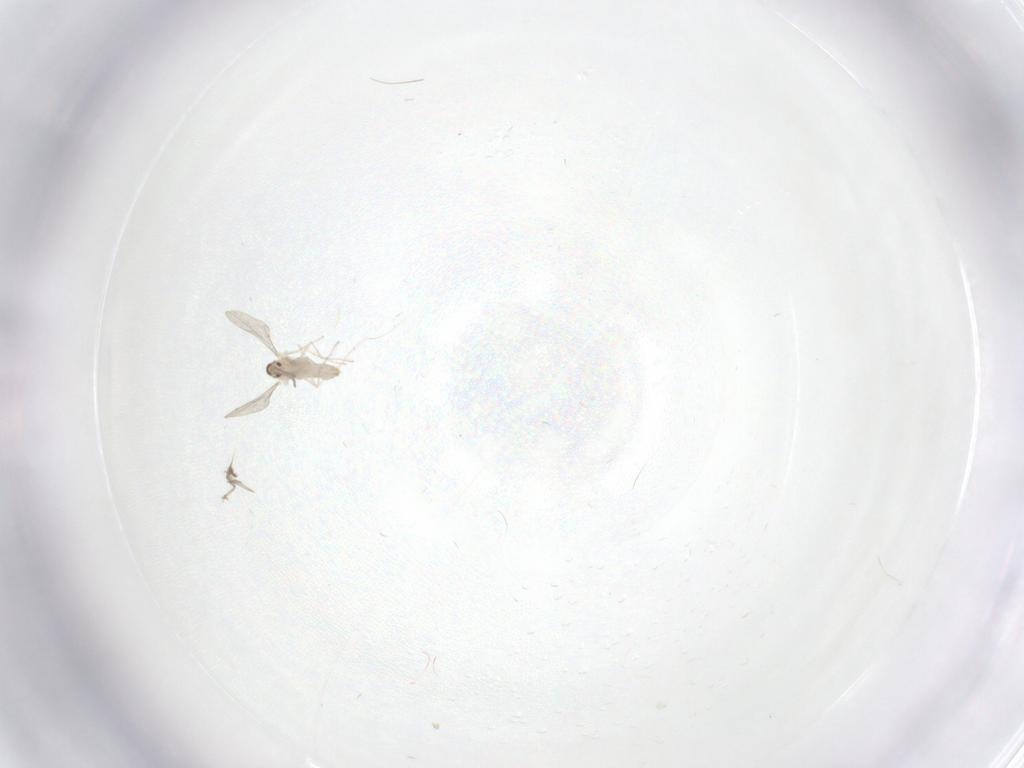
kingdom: Animalia
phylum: Arthropoda
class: Insecta
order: Diptera
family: Cecidomyiidae
